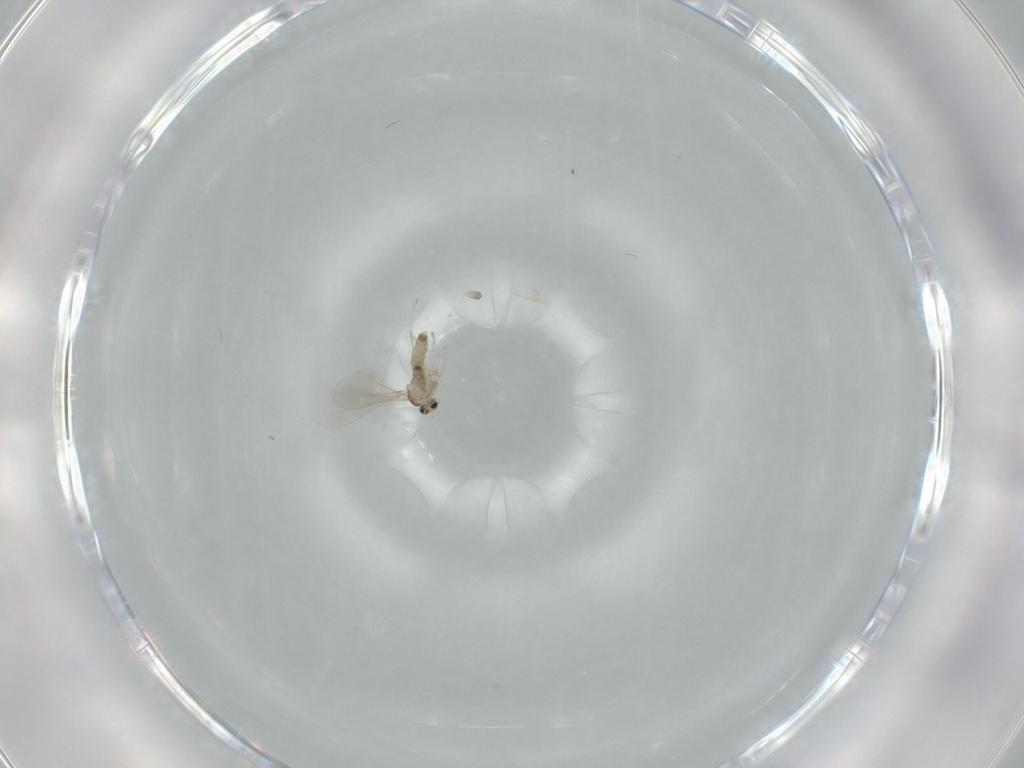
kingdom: Animalia
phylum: Arthropoda
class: Insecta
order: Diptera
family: Cecidomyiidae
